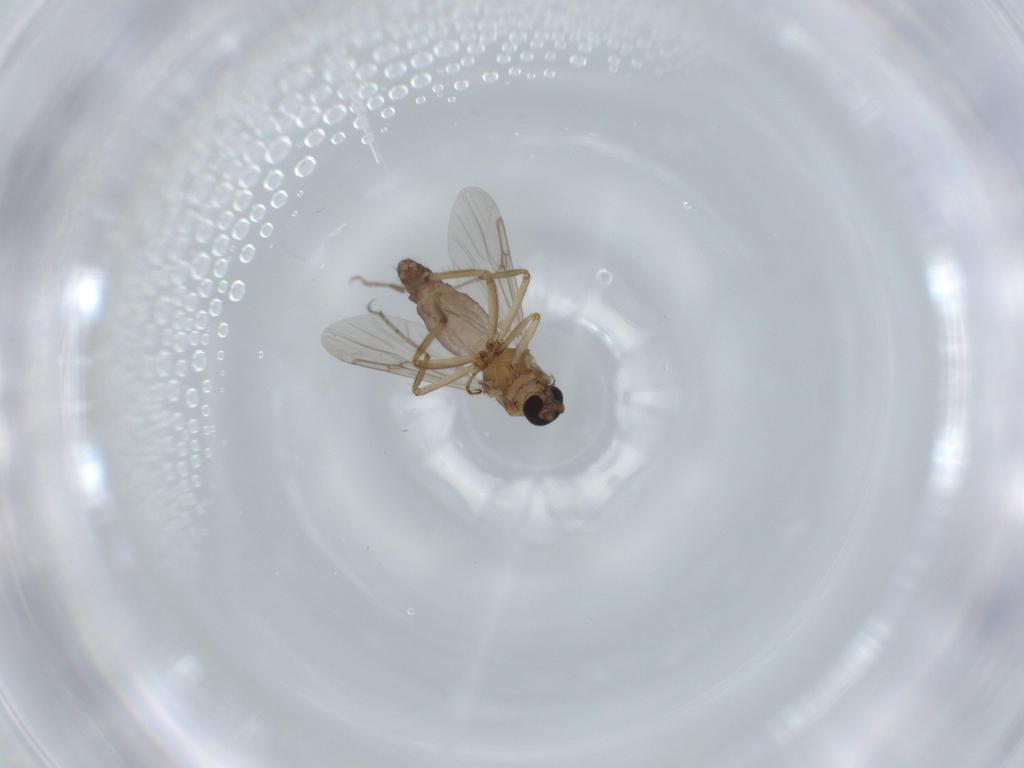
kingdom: Animalia
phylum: Arthropoda
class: Insecta
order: Diptera
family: Ceratopogonidae
